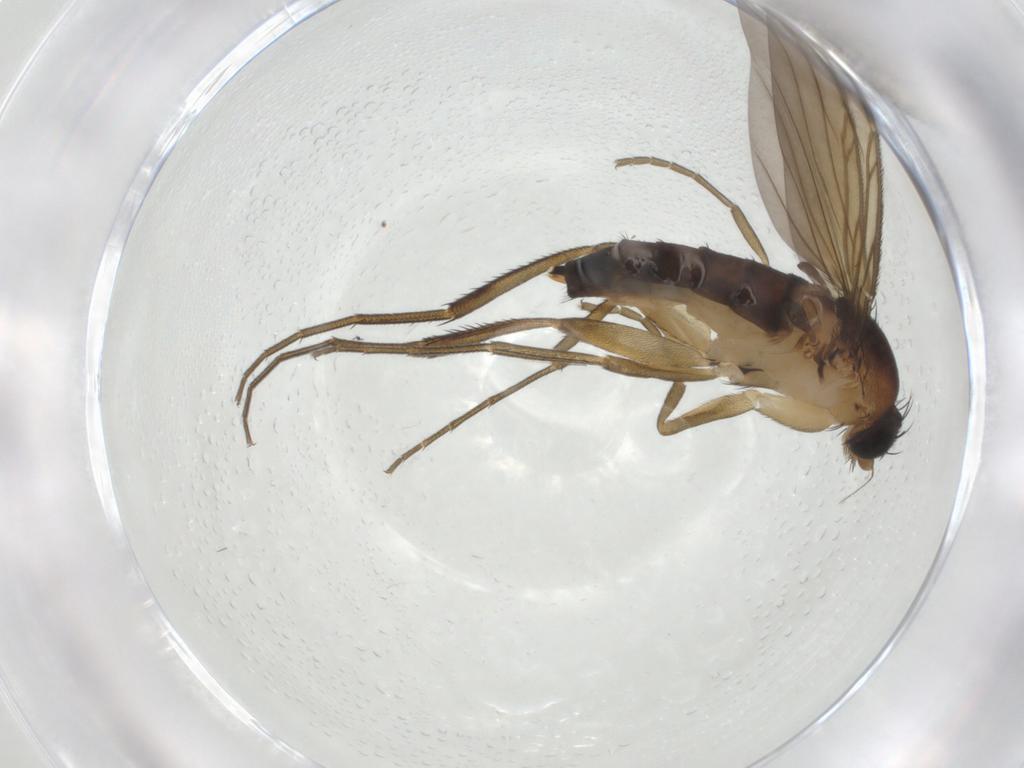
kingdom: Animalia
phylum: Arthropoda
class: Insecta
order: Diptera
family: Phoridae
